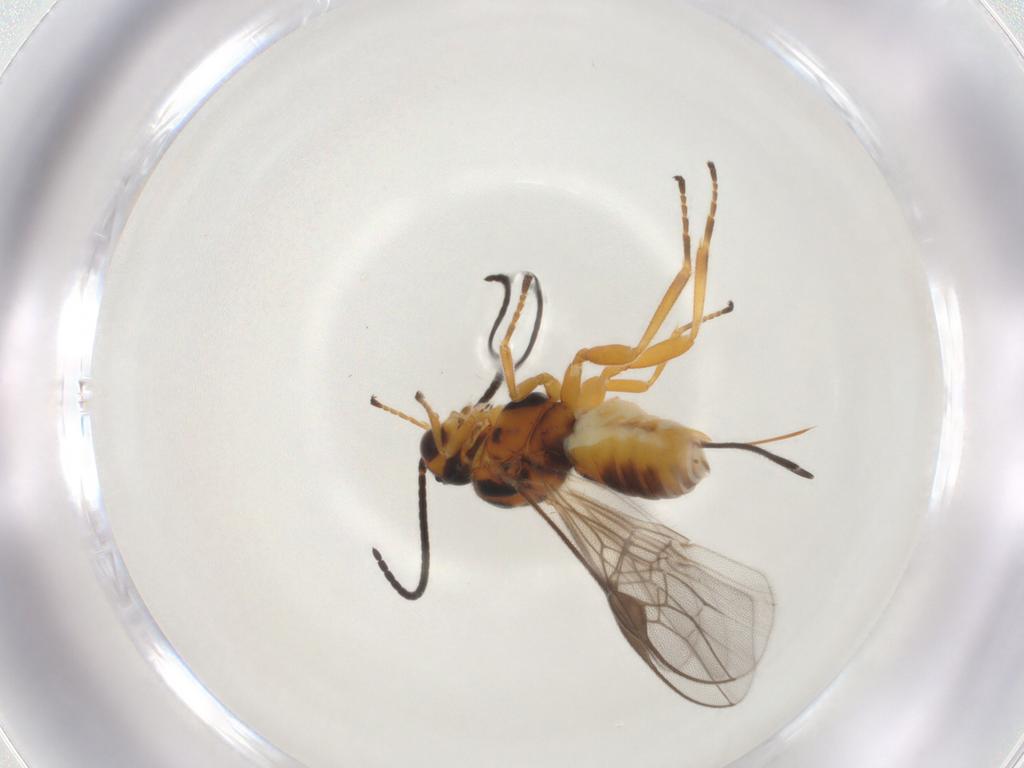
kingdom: Animalia
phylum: Arthropoda
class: Insecta
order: Hymenoptera
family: Braconidae
